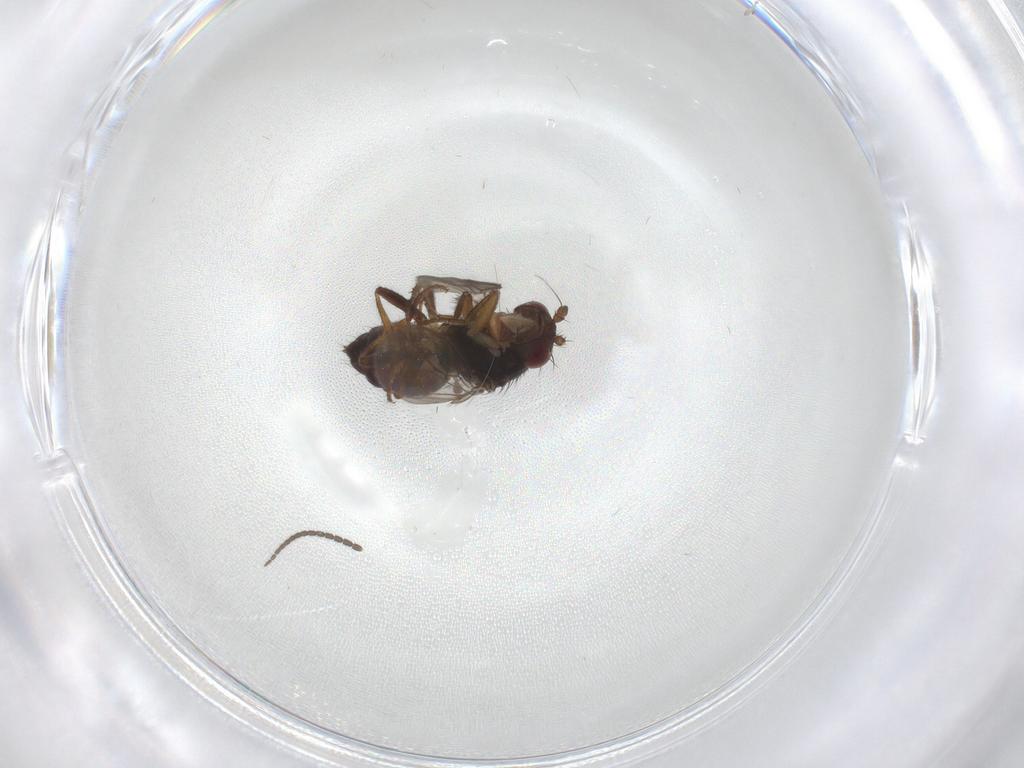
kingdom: Animalia
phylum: Arthropoda
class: Insecta
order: Diptera
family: Sphaeroceridae
